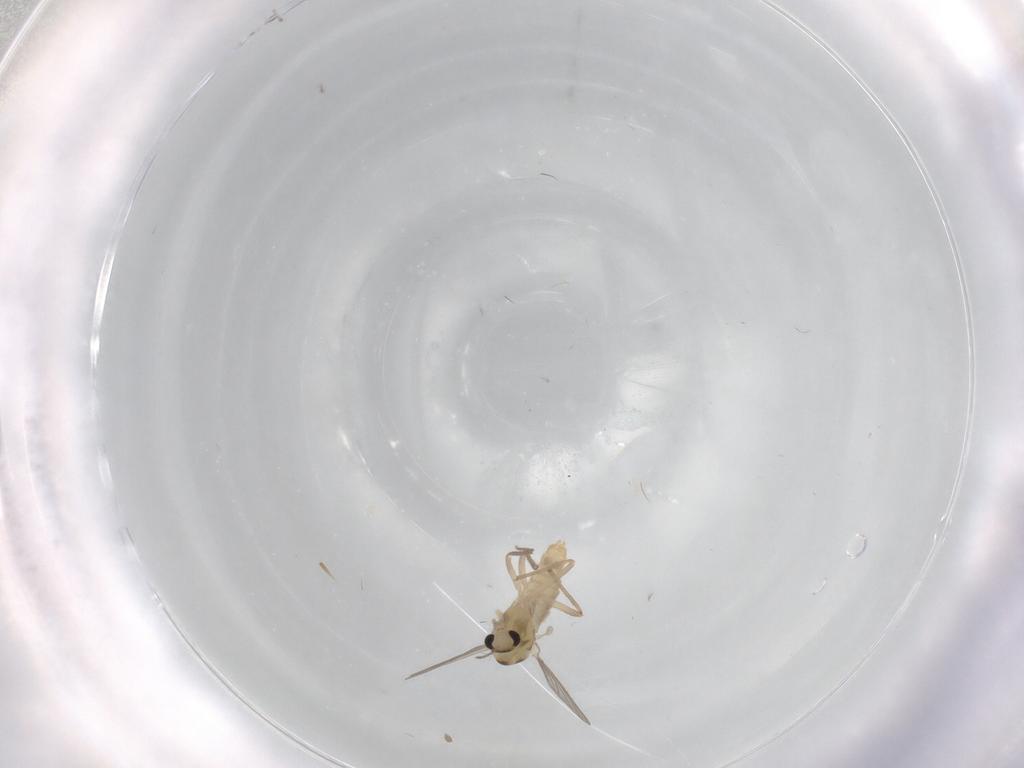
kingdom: Animalia
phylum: Arthropoda
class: Insecta
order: Diptera
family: Cecidomyiidae
